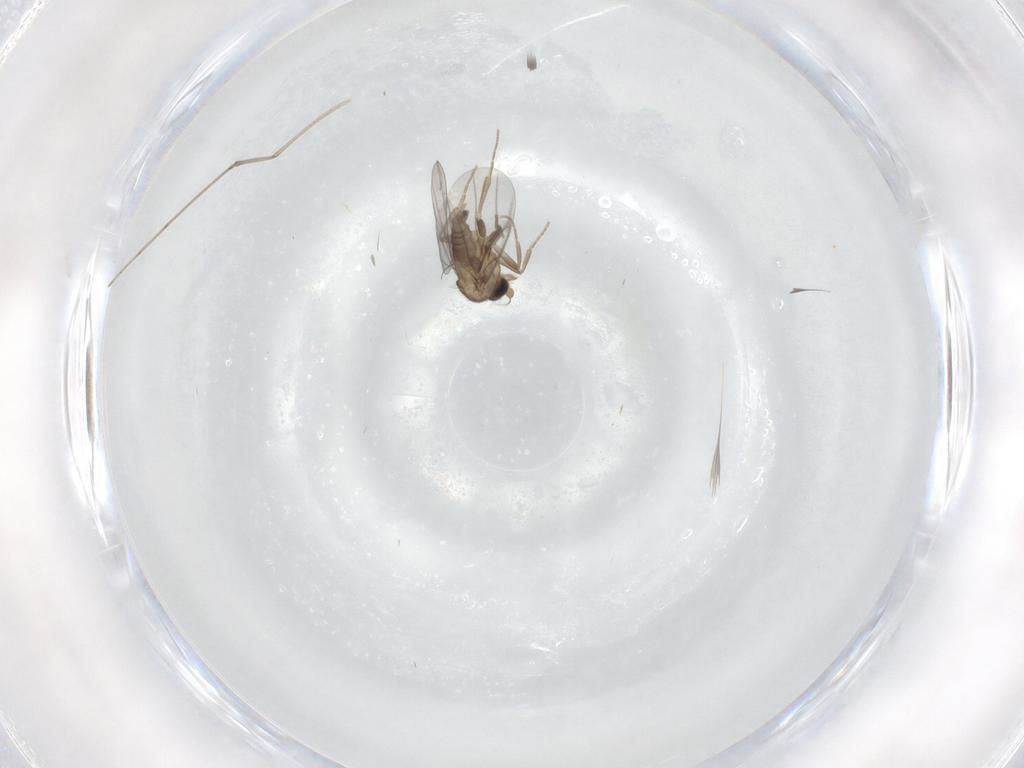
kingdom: Animalia
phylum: Arthropoda
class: Insecta
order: Diptera
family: Cecidomyiidae
